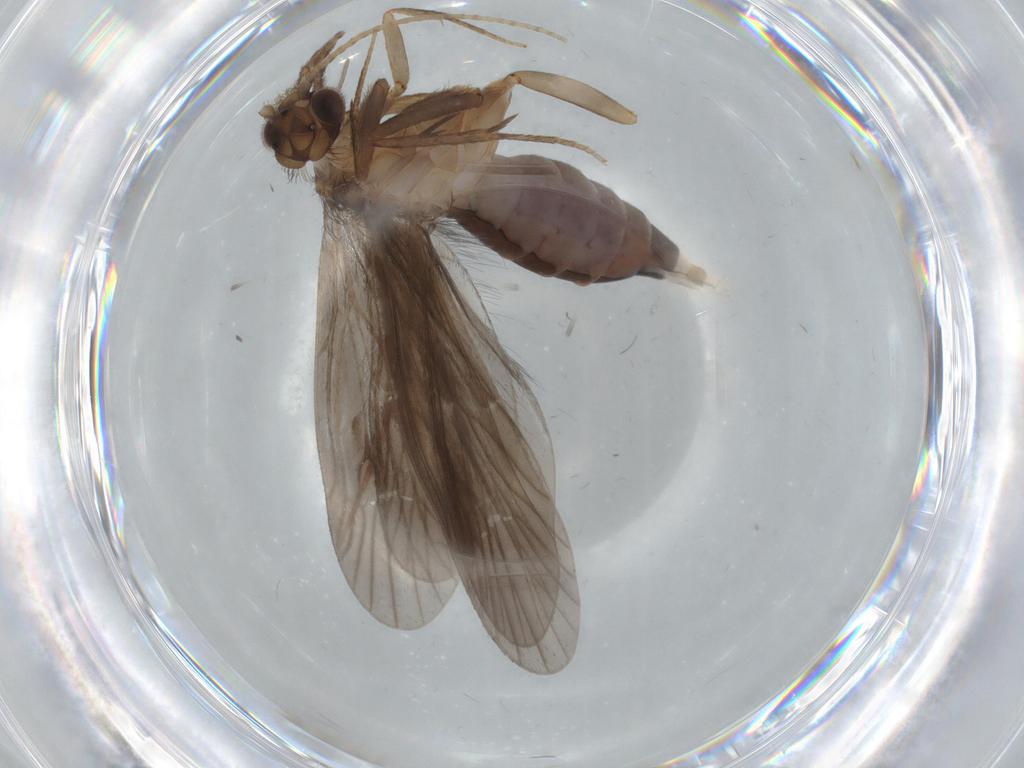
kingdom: Animalia
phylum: Arthropoda
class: Insecta
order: Trichoptera
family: Philopotamidae
